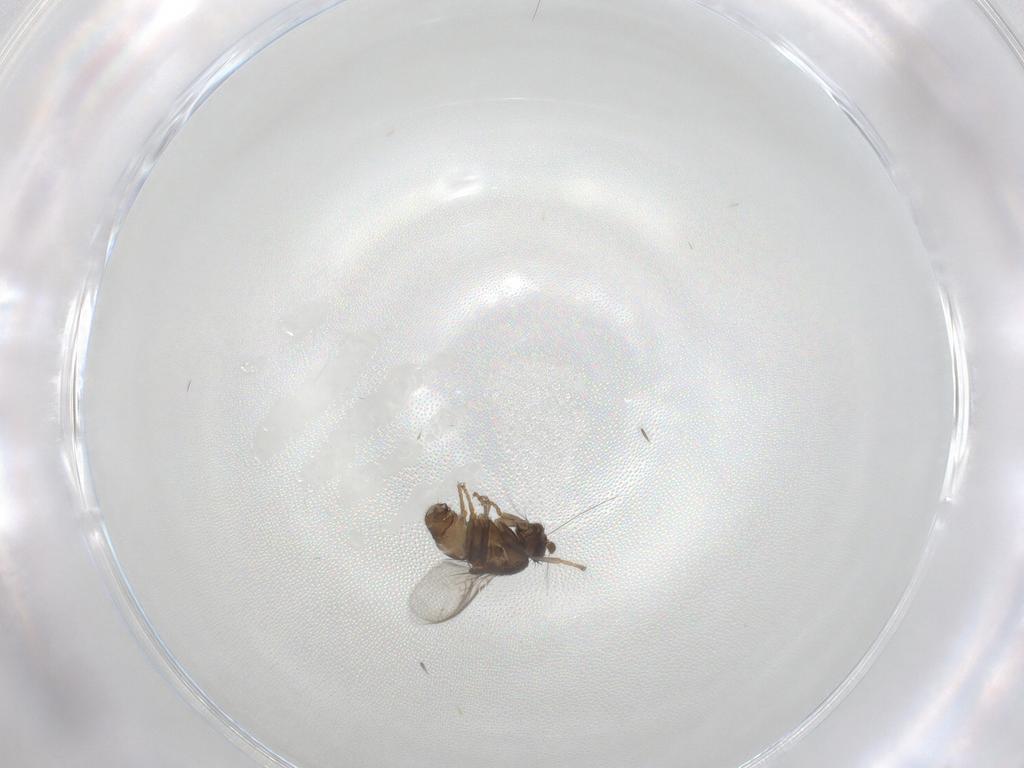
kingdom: Animalia
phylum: Arthropoda
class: Insecta
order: Diptera
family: Sphaeroceridae
